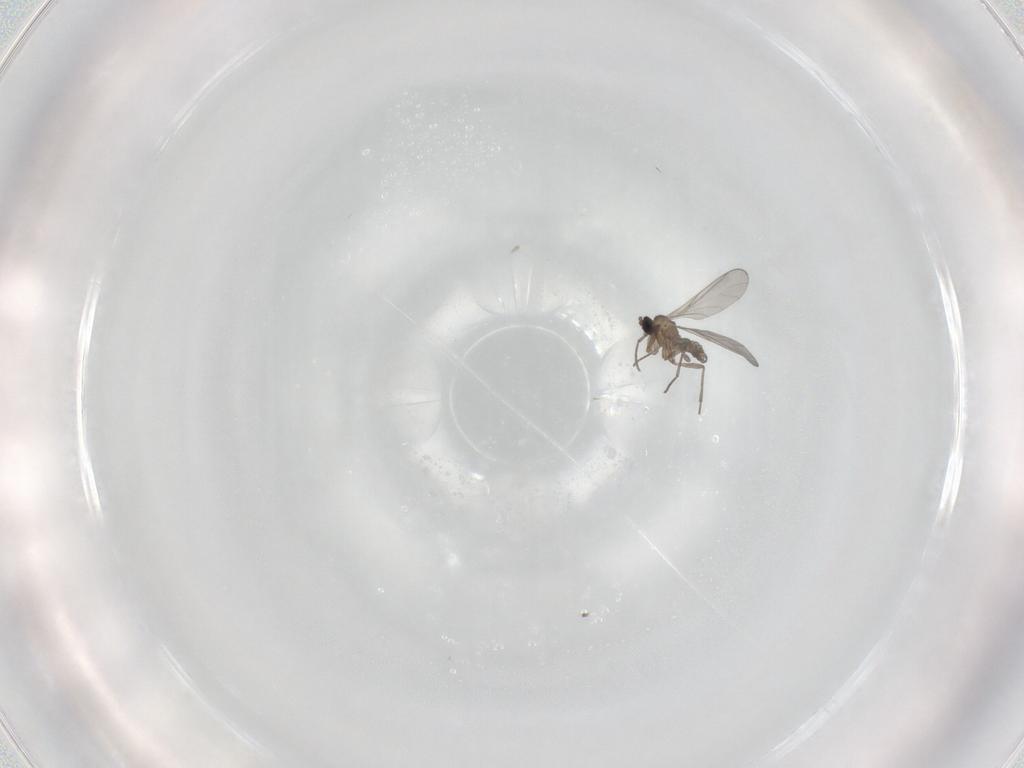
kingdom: Animalia
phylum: Arthropoda
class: Insecta
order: Diptera
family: Sciaridae
